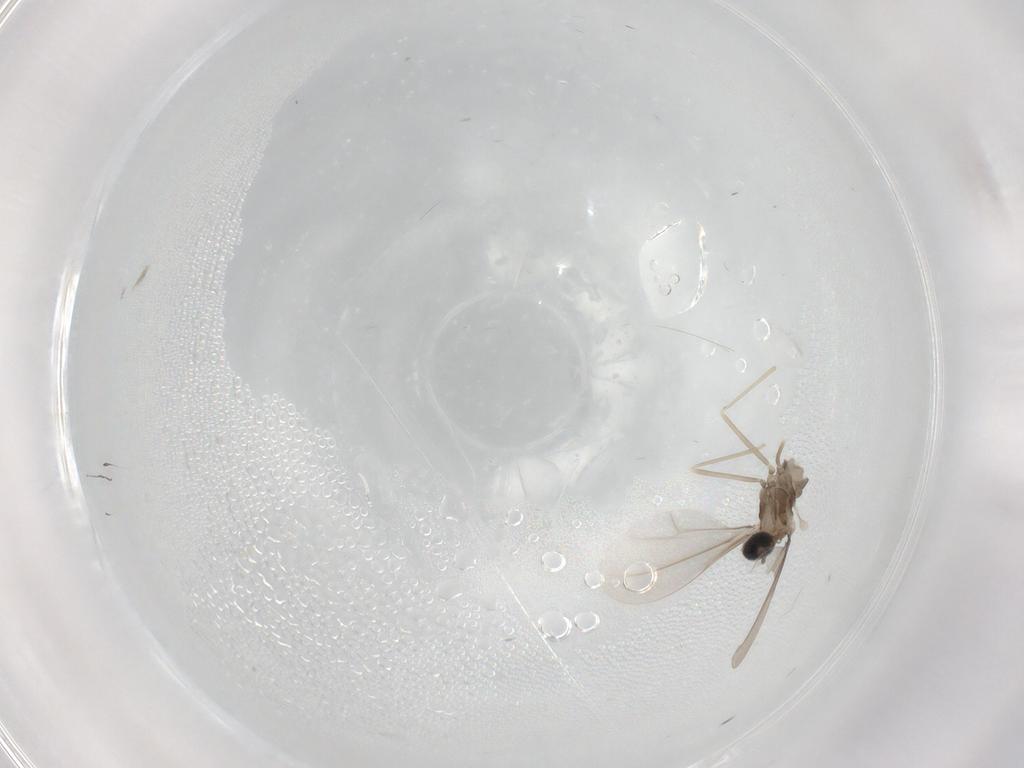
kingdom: Animalia
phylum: Arthropoda
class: Insecta
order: Diptera
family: Cecidomyiidae
